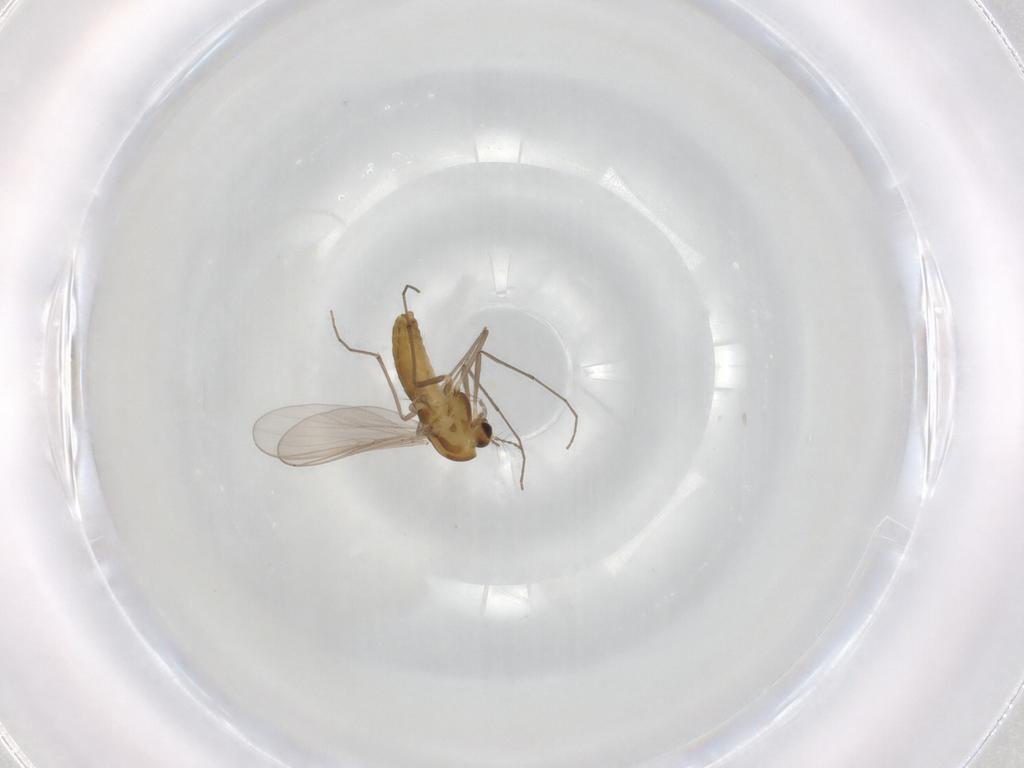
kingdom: Animalia
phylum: Arthropoda
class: Insecta
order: Diptera
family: Chironomidae
